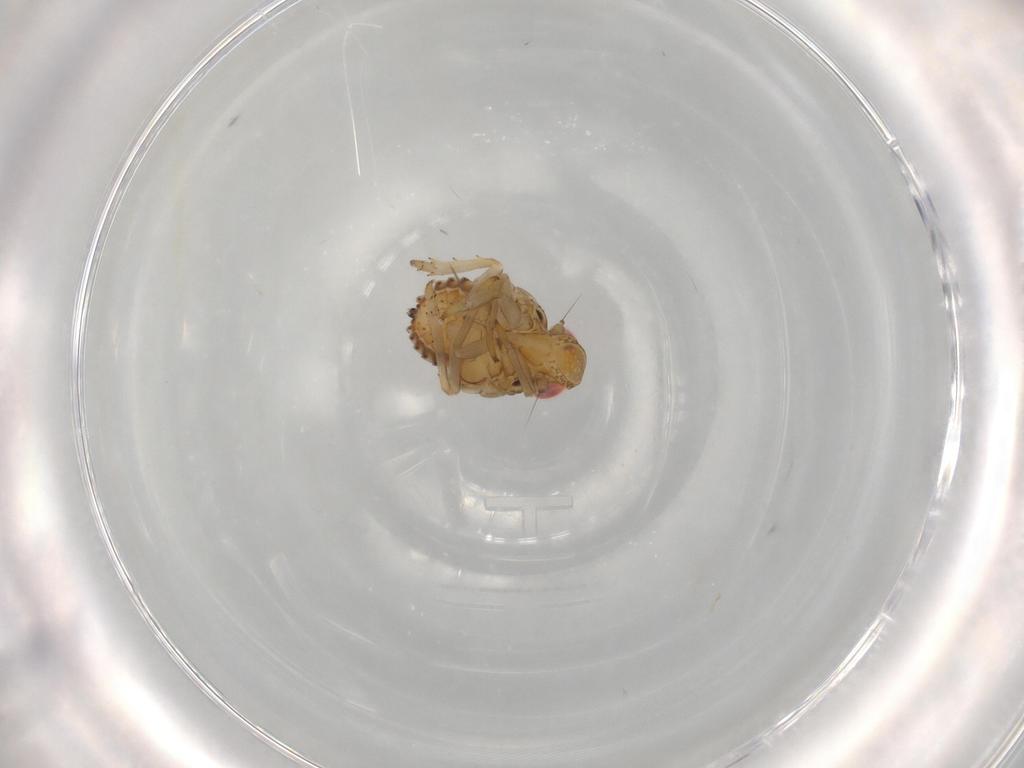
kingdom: Animalia
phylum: Arthropoda
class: Insecta
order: Hemiptera
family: Issidae
